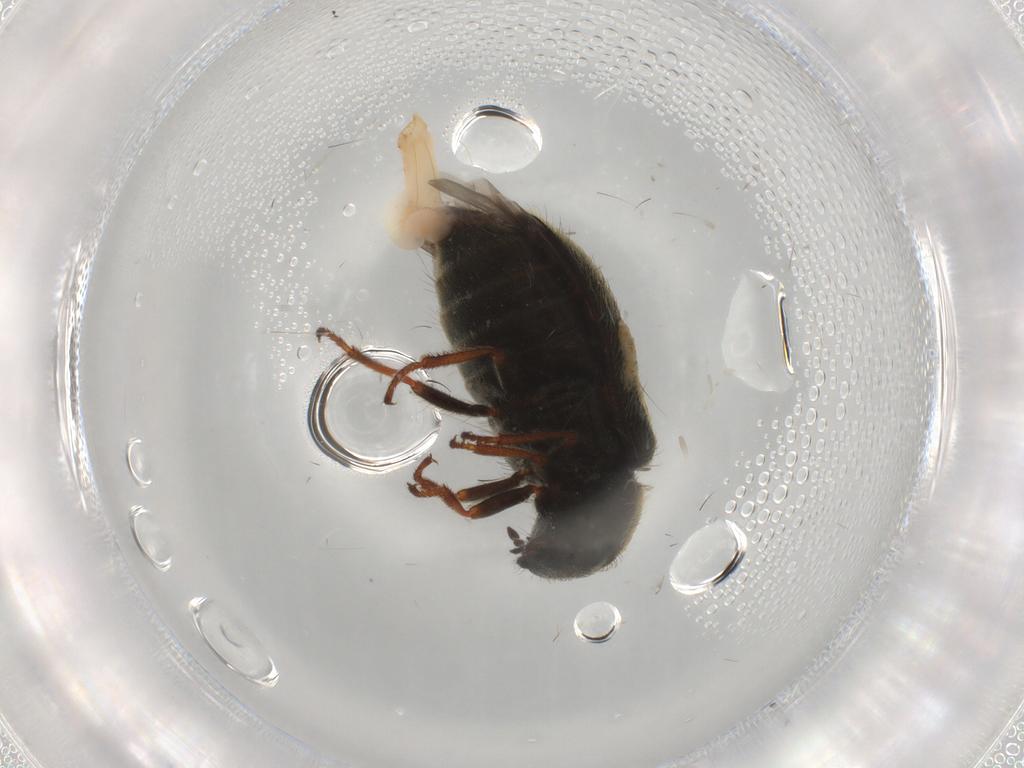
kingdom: Animalia
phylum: Arthropoda
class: Insecta
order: Coleoptera
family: Melyridae
